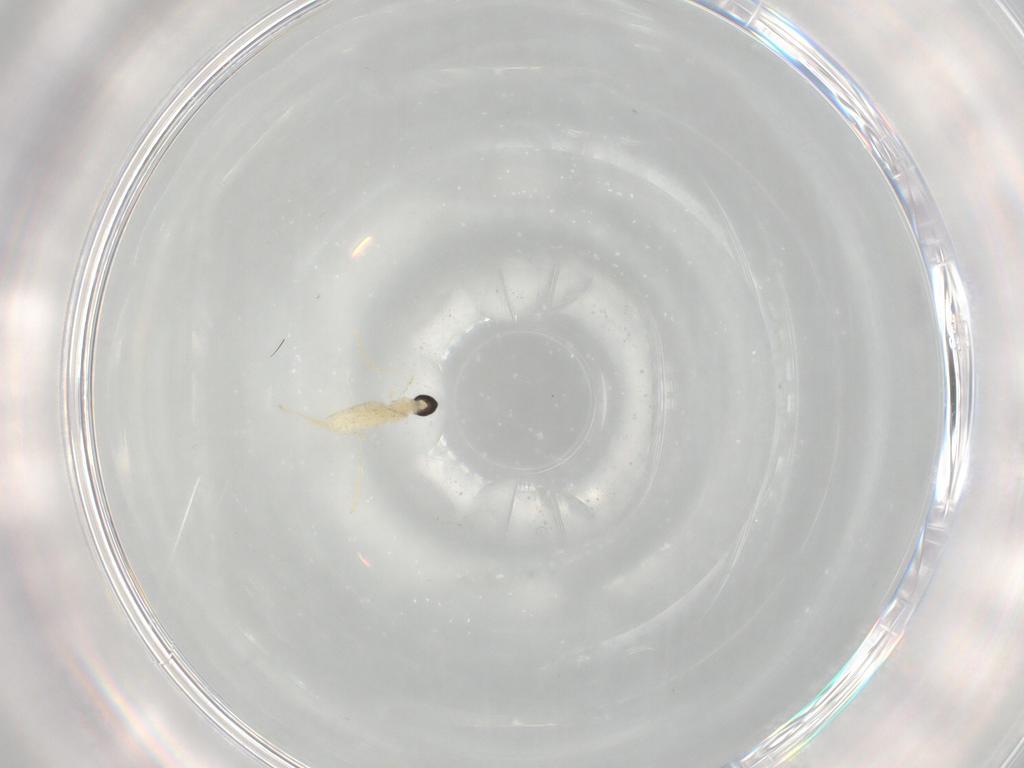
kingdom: Animalia
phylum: Arthropoda
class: Insecta
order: Diptera
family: Cecidomyiidae
